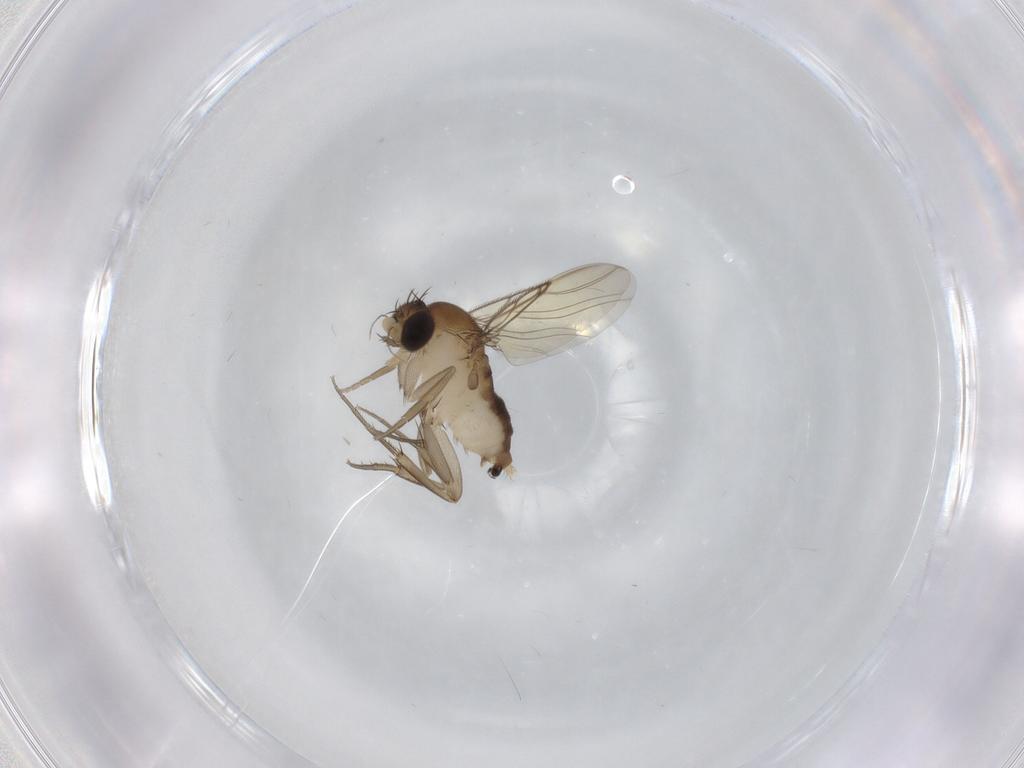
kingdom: Animalia
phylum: Arthropoda
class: Insecta
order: Diptera
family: Phoridae
